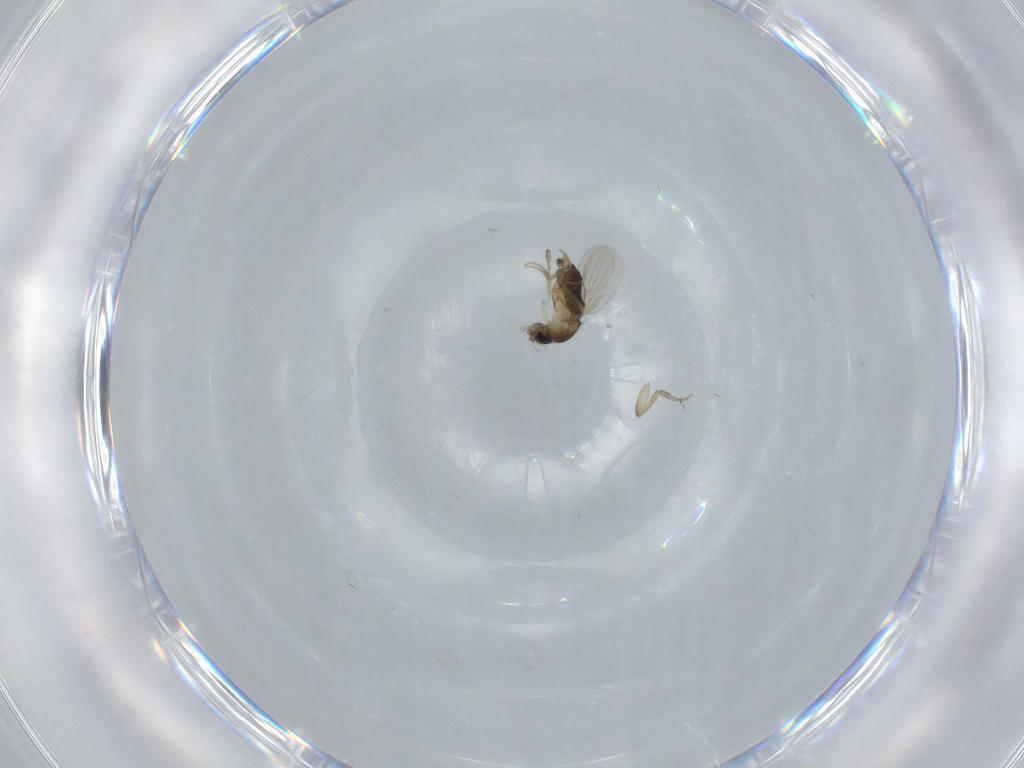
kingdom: Animalia
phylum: Arthropoda
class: Insecta
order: Diptera
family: Phoridae
